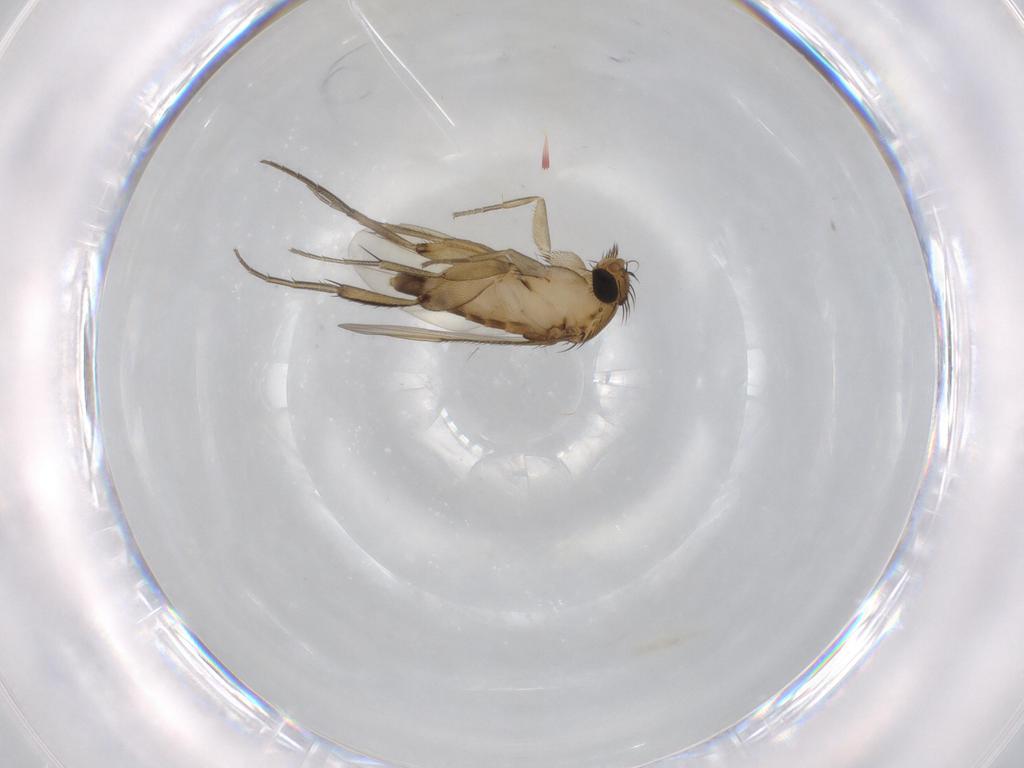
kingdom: Animalia
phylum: Arthropoda
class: Insecta
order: Diptera
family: Phoridae
